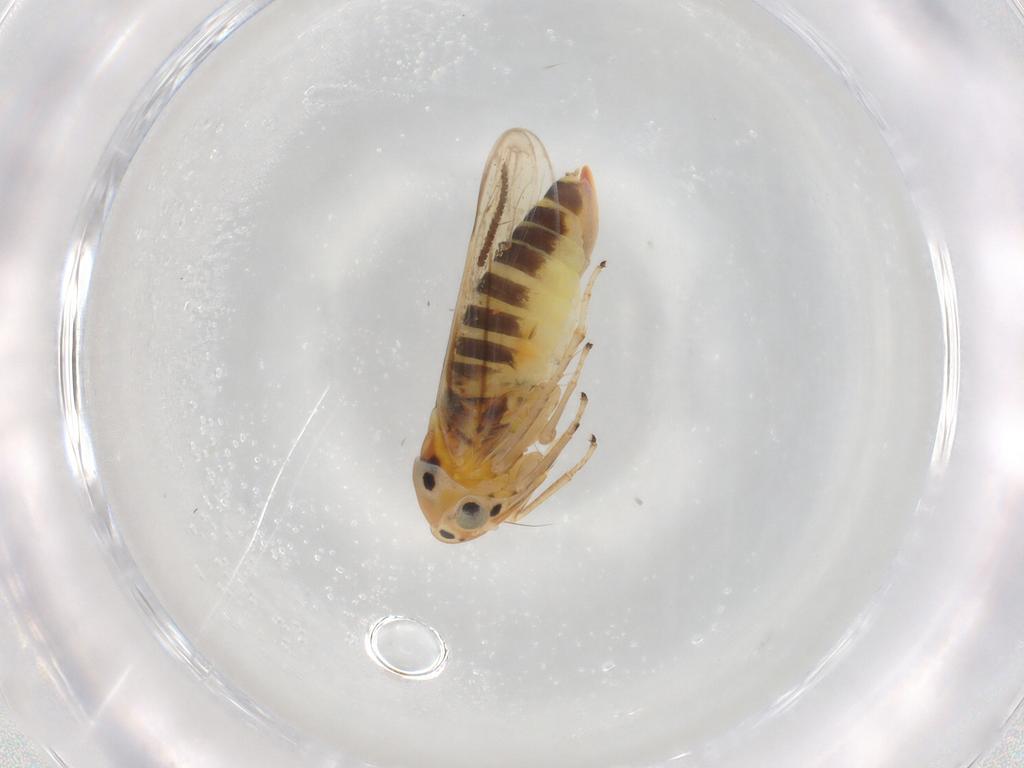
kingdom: Animalia
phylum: Arthropoda
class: Insecta
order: Hemiptera
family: Cicadellidae
